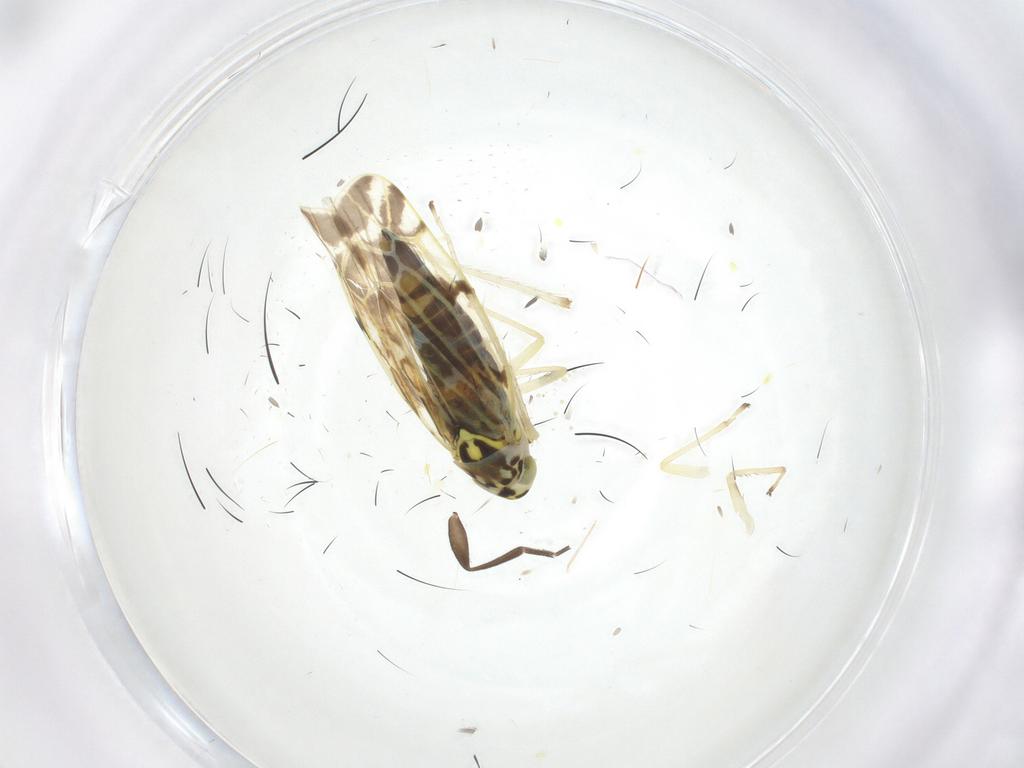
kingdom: Animalia
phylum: Arthropoda
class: Insecta
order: Hemiptera
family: Cicadellidae
